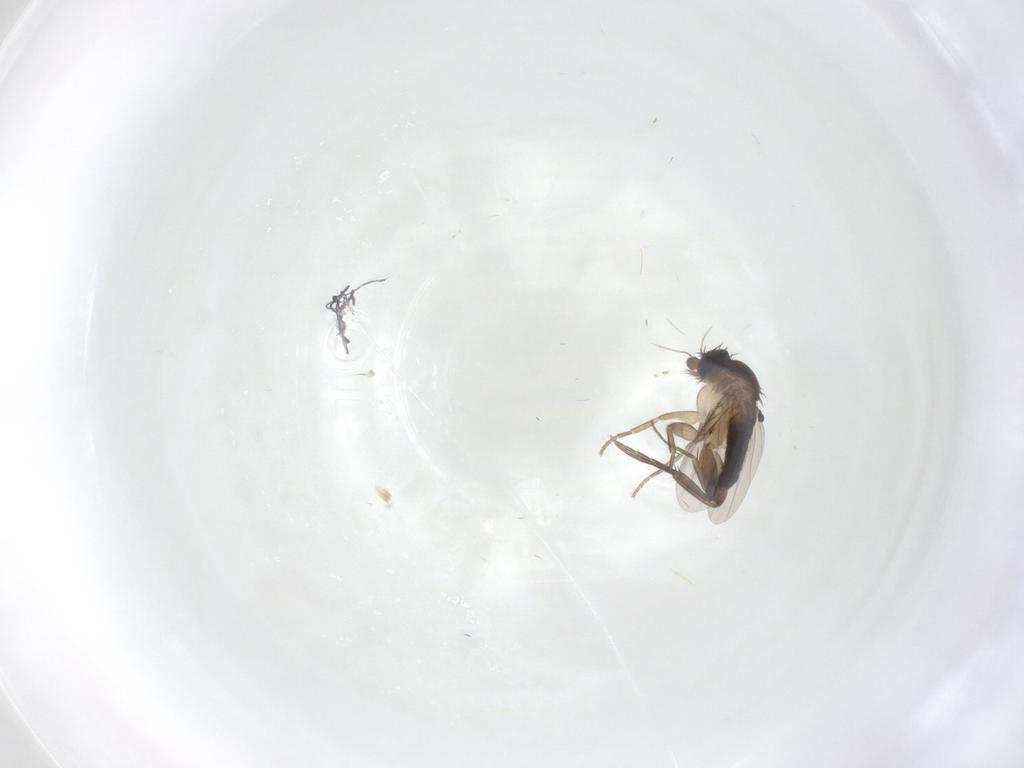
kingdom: Animalia
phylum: Arthropoda
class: Insecta
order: Diptera
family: Phoridae
